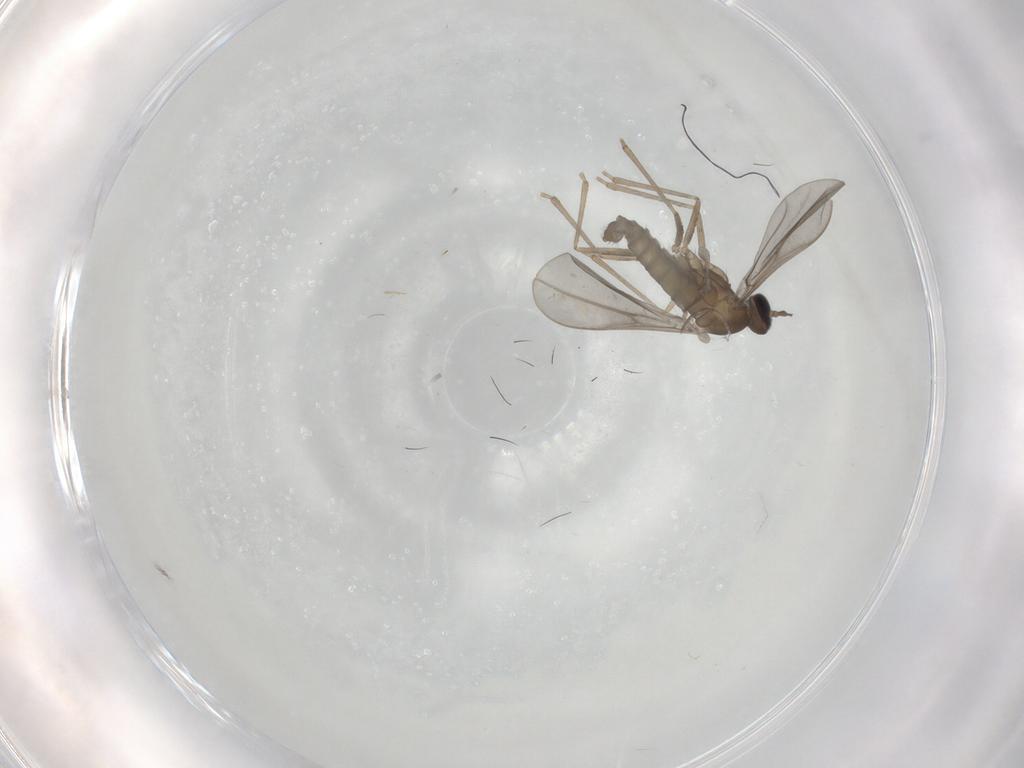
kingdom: Animalia
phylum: Arthropoda
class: Insecta
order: Diptera
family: Cecidomyiidae
